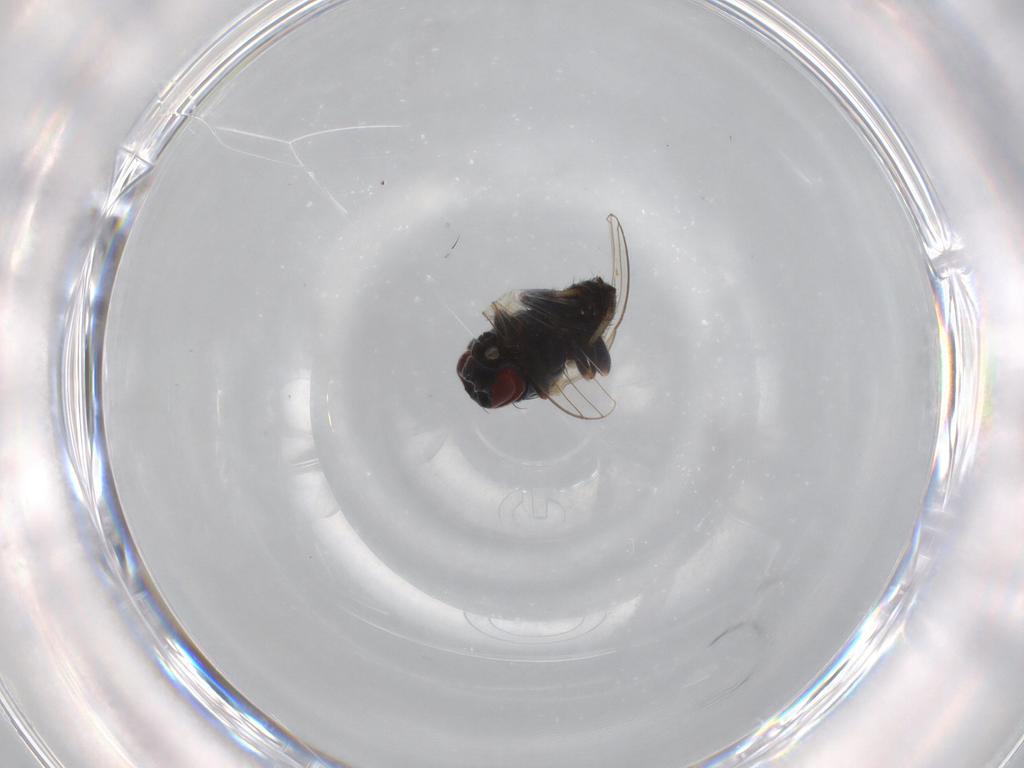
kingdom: Animalia
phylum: Arthropoda
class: Insecta
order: Diptera
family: Chamaemyiidae
